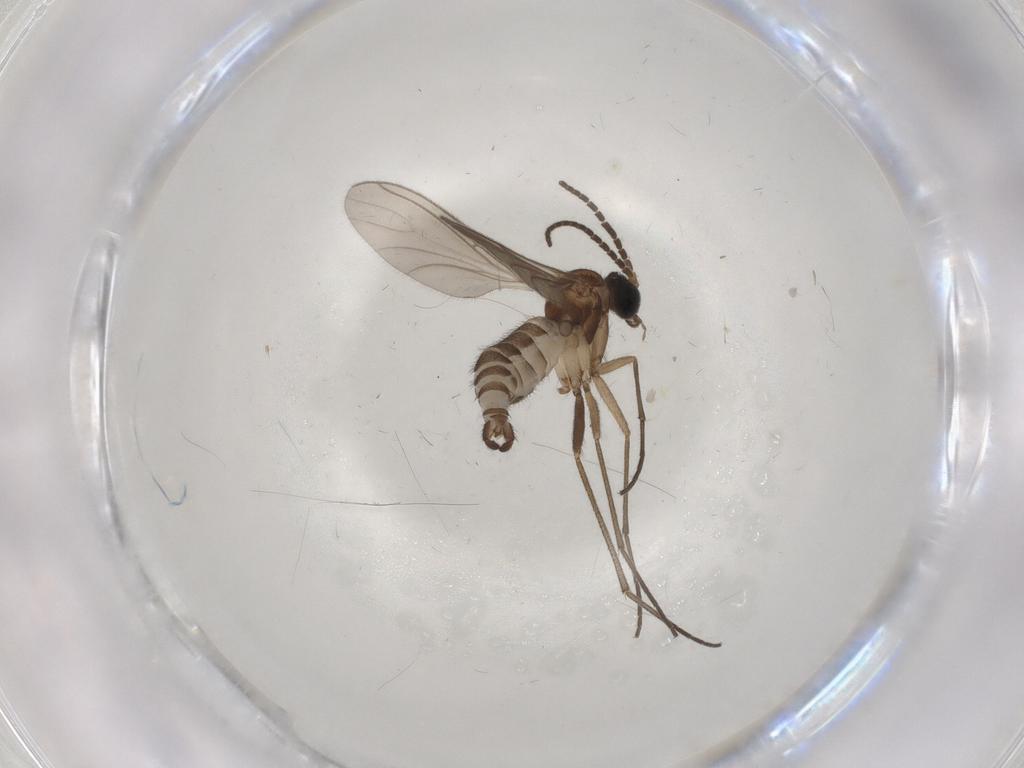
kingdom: Animalia
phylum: Arthropoda
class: Insecta
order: Diptera
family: Sciaridae
